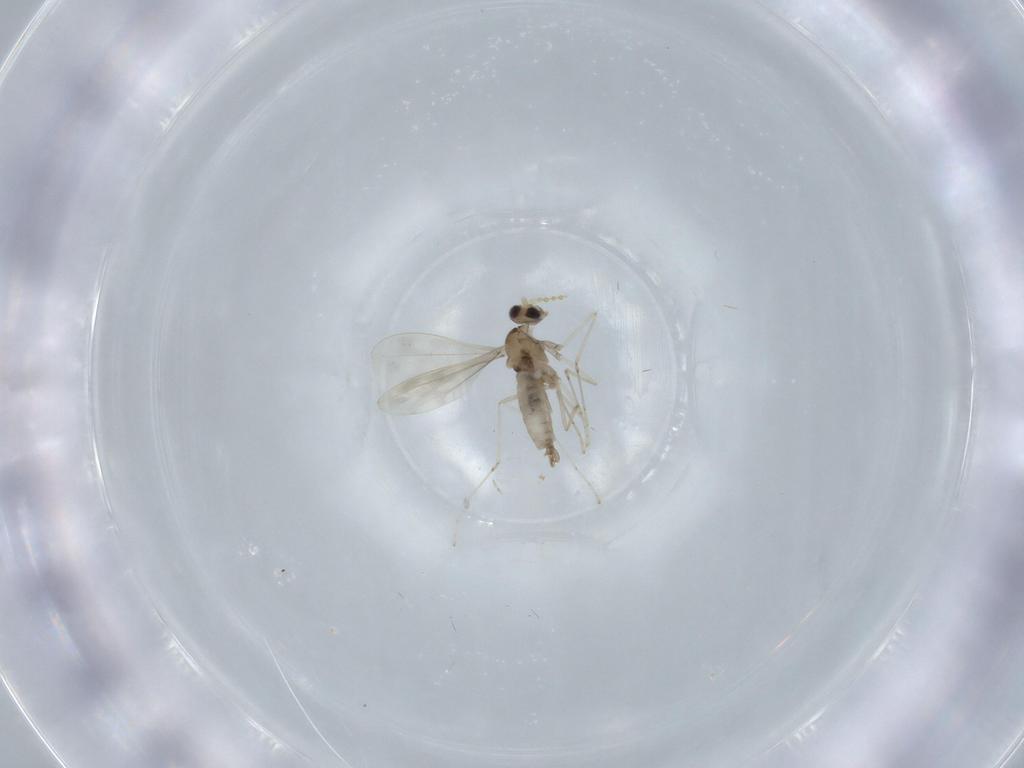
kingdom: Animalia
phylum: Arthropoda
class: Insecta
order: Diptera
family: Cecidomyiidae
